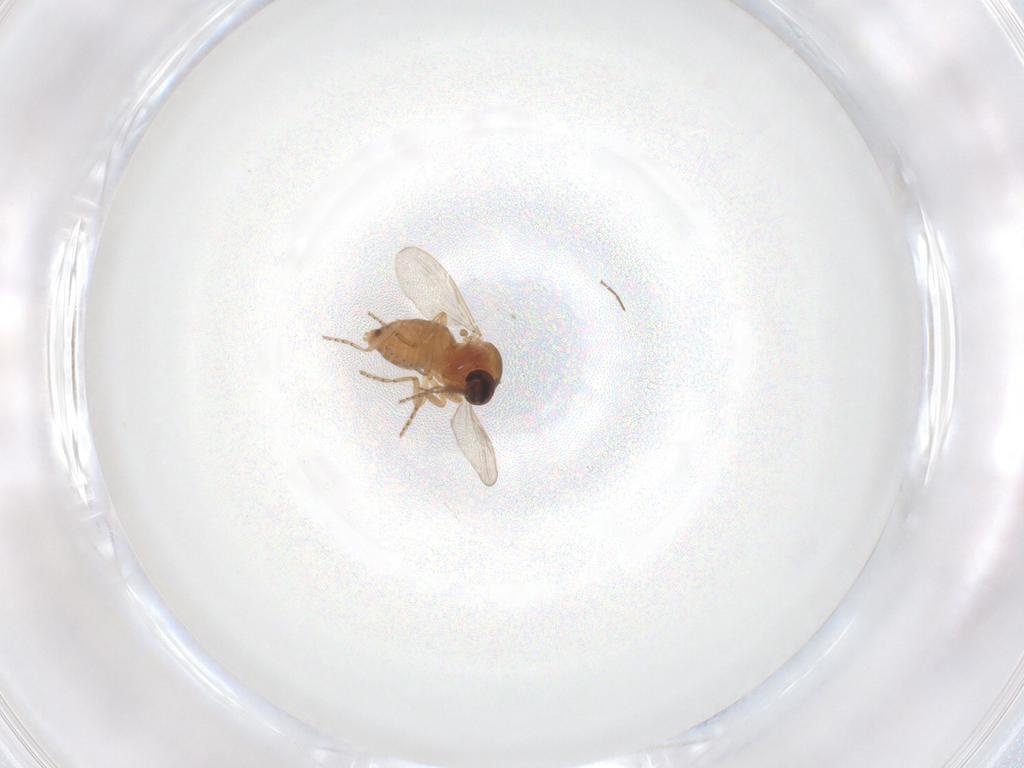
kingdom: Animalia
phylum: Arthropoda
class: Insecta
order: Diptera
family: Sciaridae
